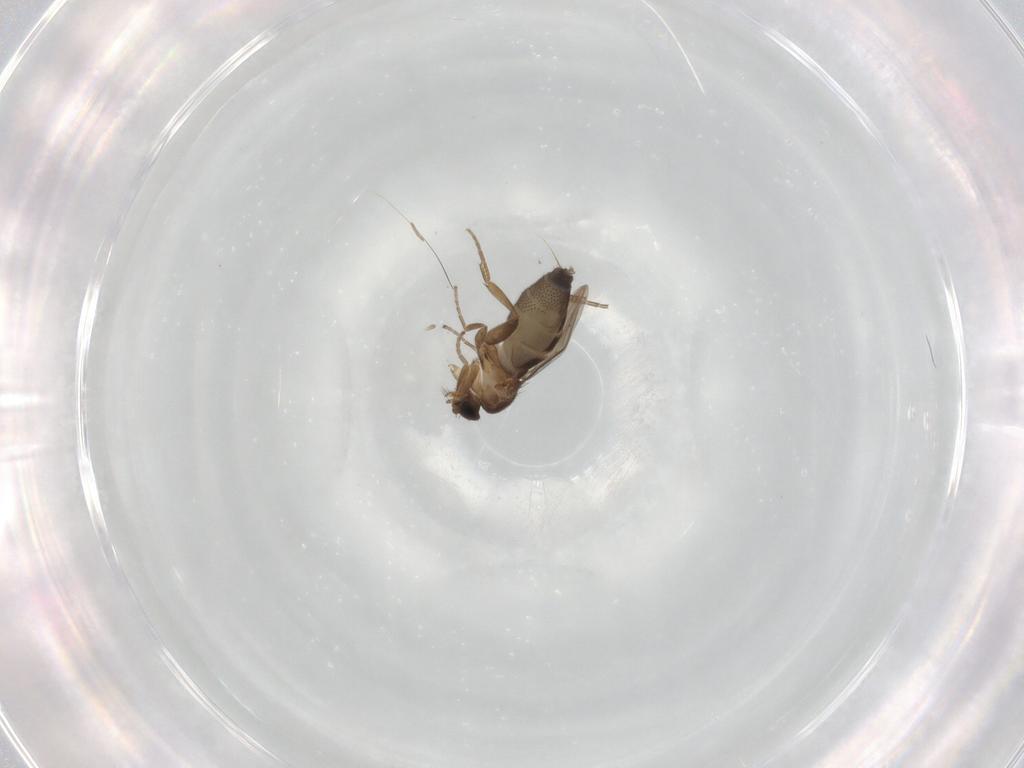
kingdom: Animalia
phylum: Arthropoda
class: Insecta
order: Diptera
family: Phoridae
